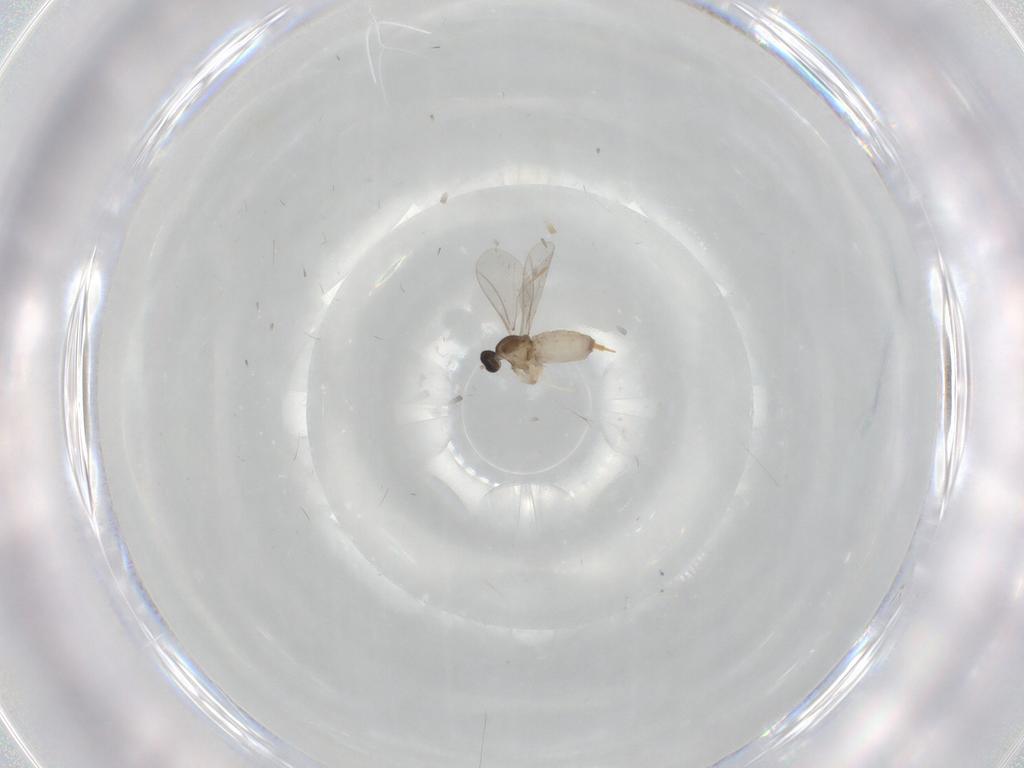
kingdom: Animalia
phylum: Arthropoda
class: Insecta
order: Diptera
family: Cecidomyiidae
